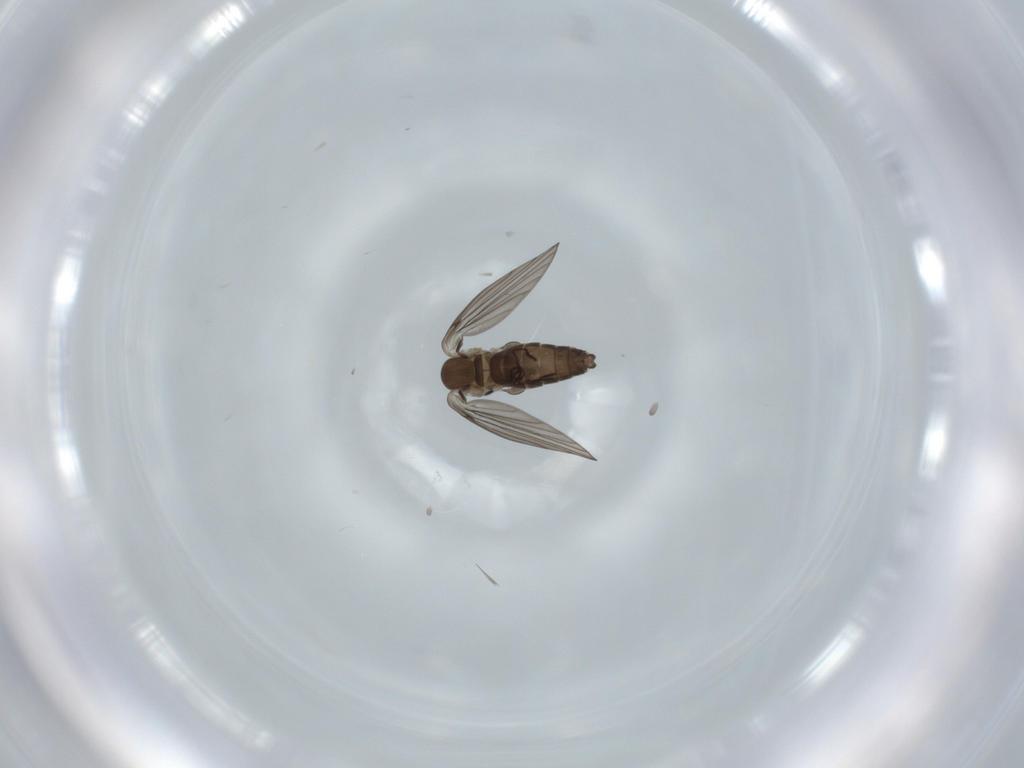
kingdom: Animalia
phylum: Arthropoda
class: Insecta
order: Diptera
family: Psychodidae
